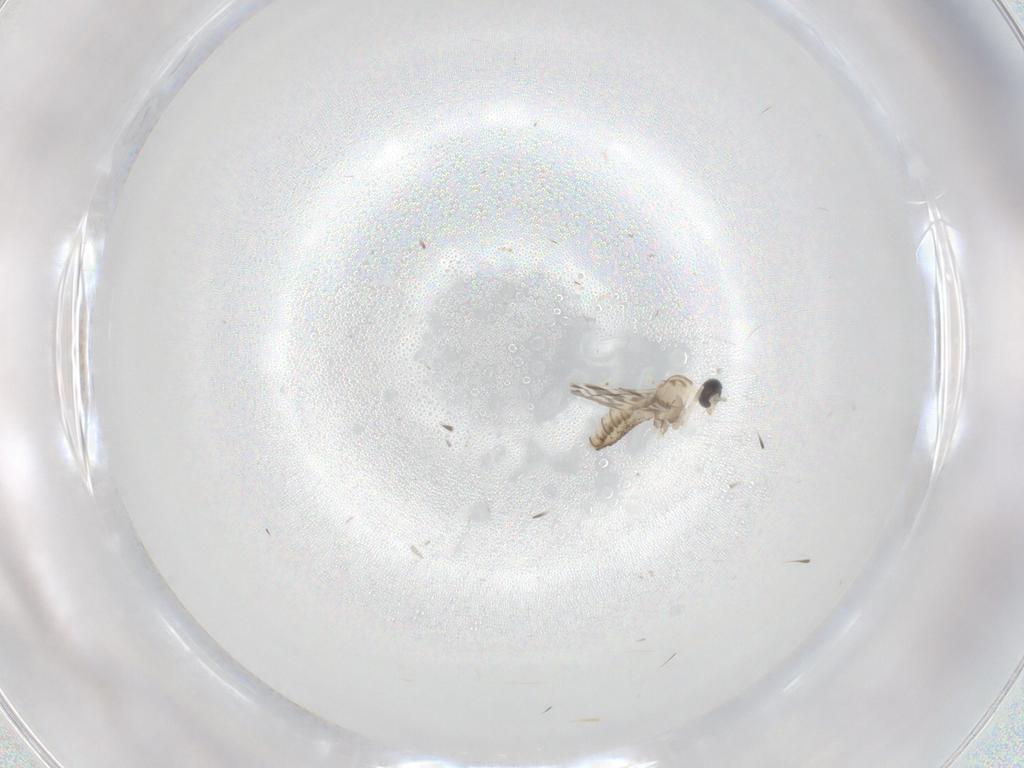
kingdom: Animalia
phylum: Arthropoda
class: Insecta
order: Diptera
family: Cecidomyiidae
